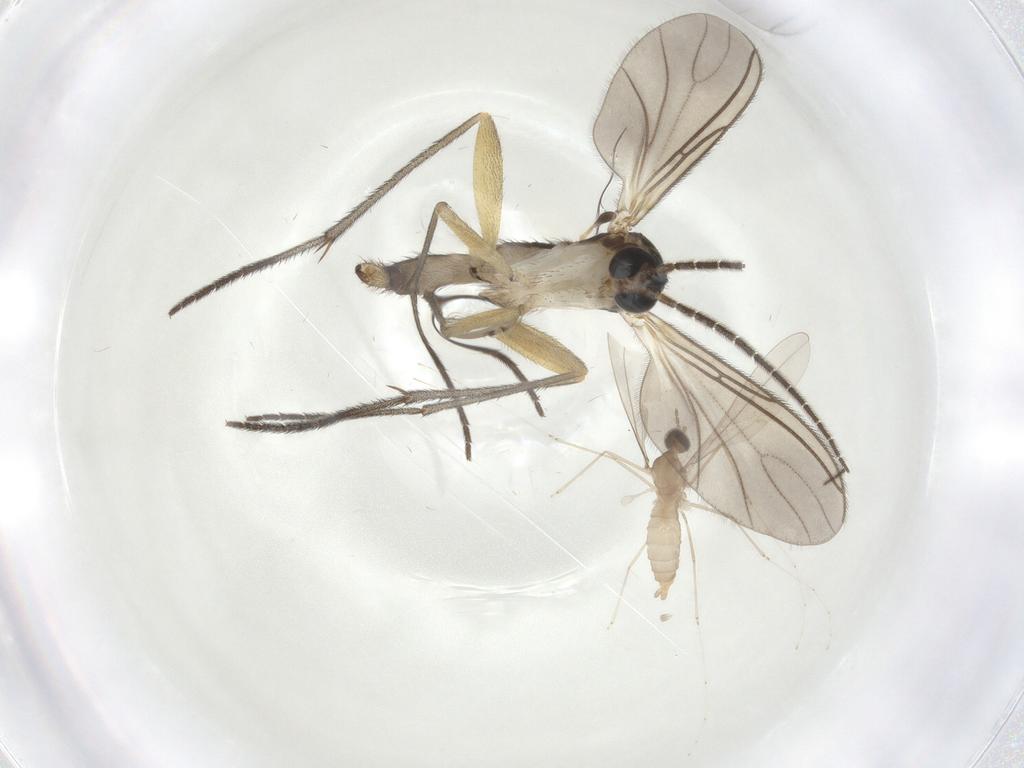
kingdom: Animalia
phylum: Arthropoda
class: Insecta
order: Diptera
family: Sciaridae
